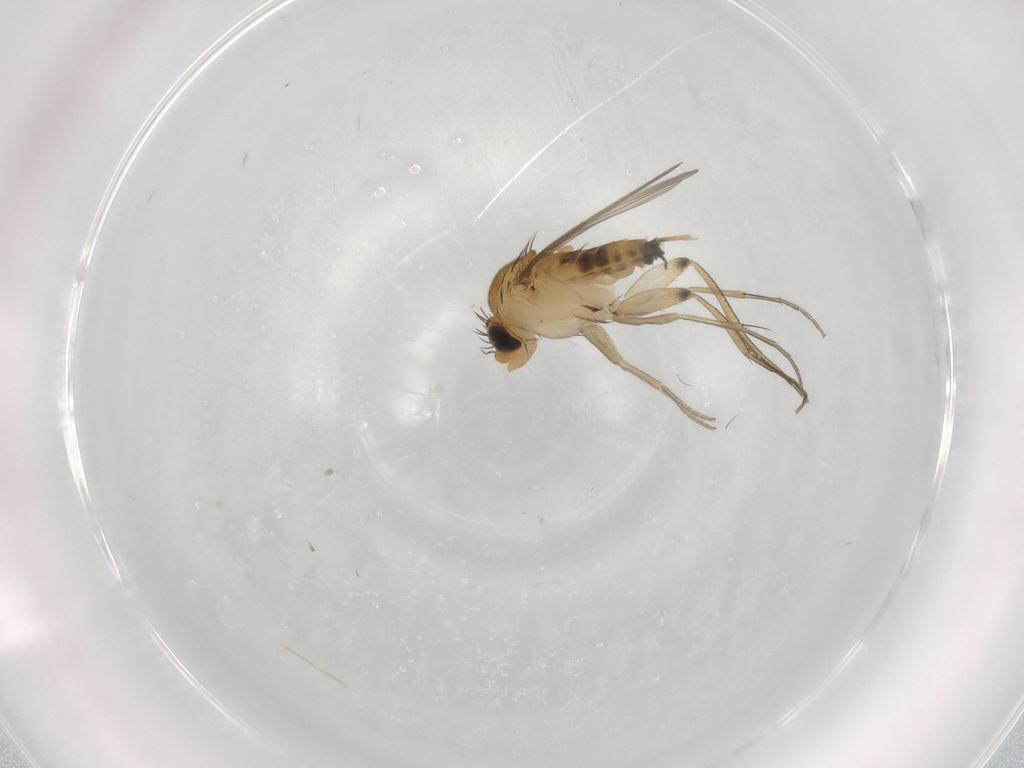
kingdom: Animalia
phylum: Arthropoda
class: Insecta
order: Diptera
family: Phoridae
